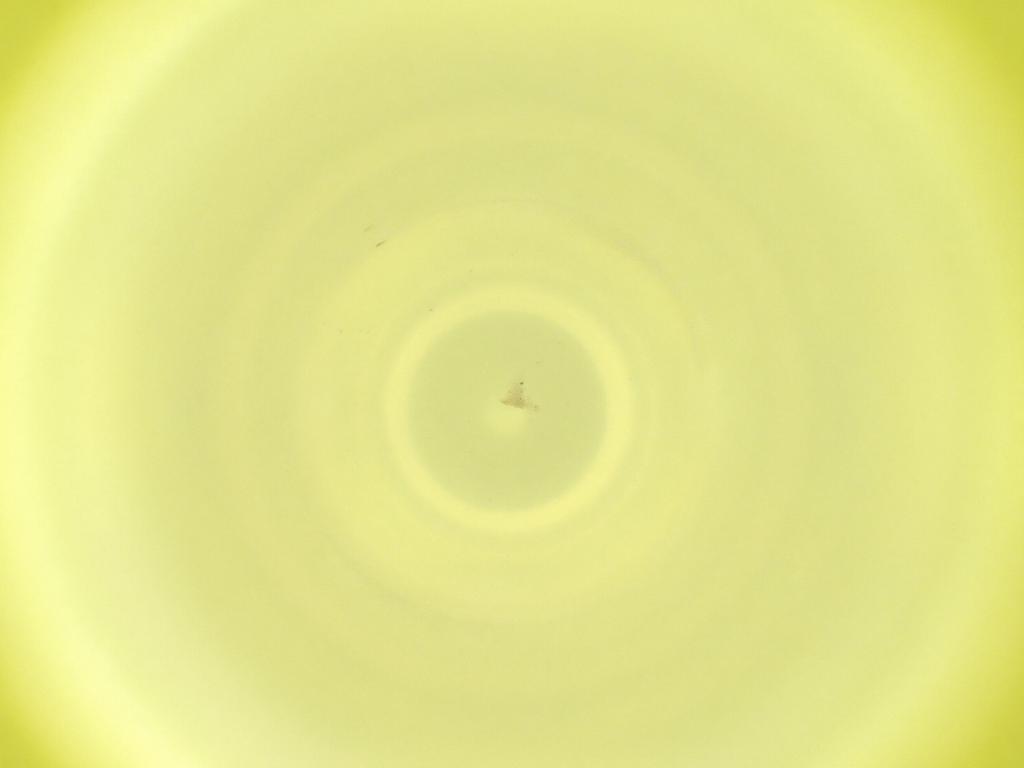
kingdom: Animalia
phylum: Arthropoda
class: Insecta
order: Diptera
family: Cecidomyiidae
